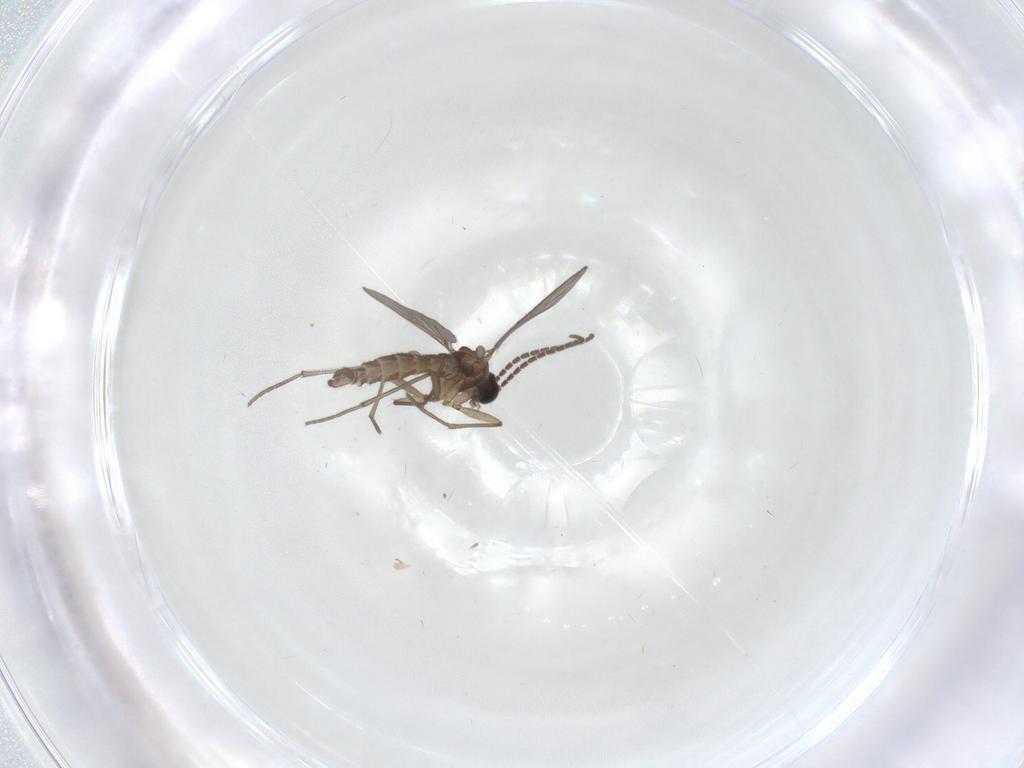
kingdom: Animalia
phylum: Arthropoda
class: Insecta
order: Diptera
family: Sciaridae
